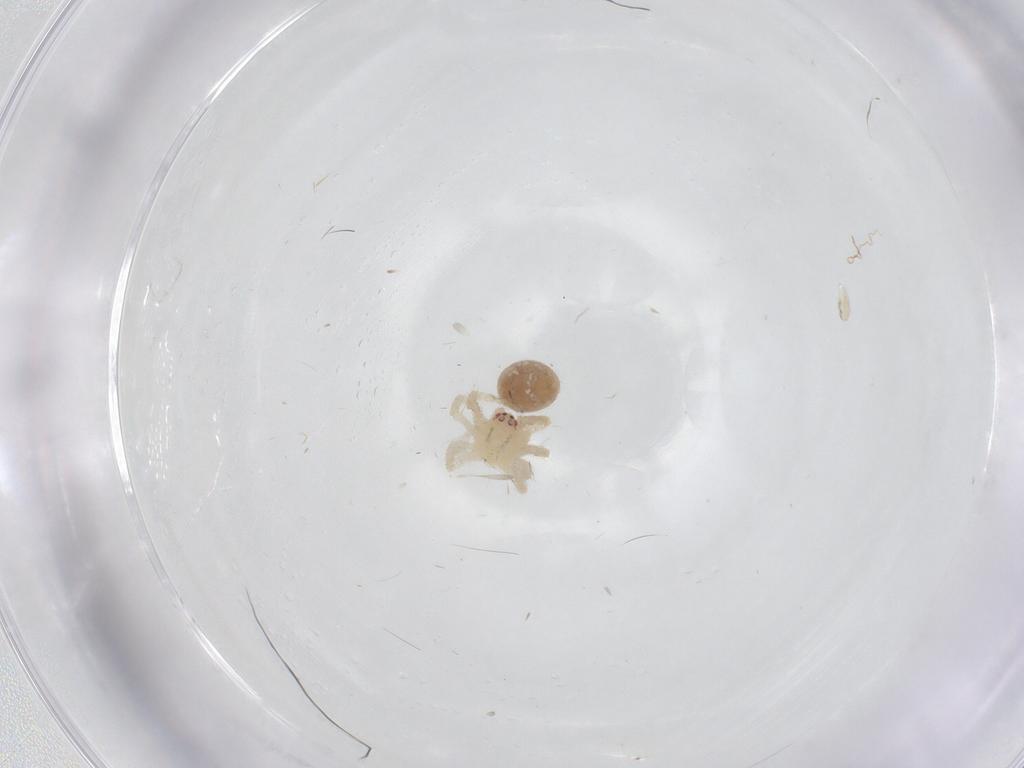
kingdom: Animalia
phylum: Arthropoda
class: Arachnida
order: Araneae
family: Theridiidae
